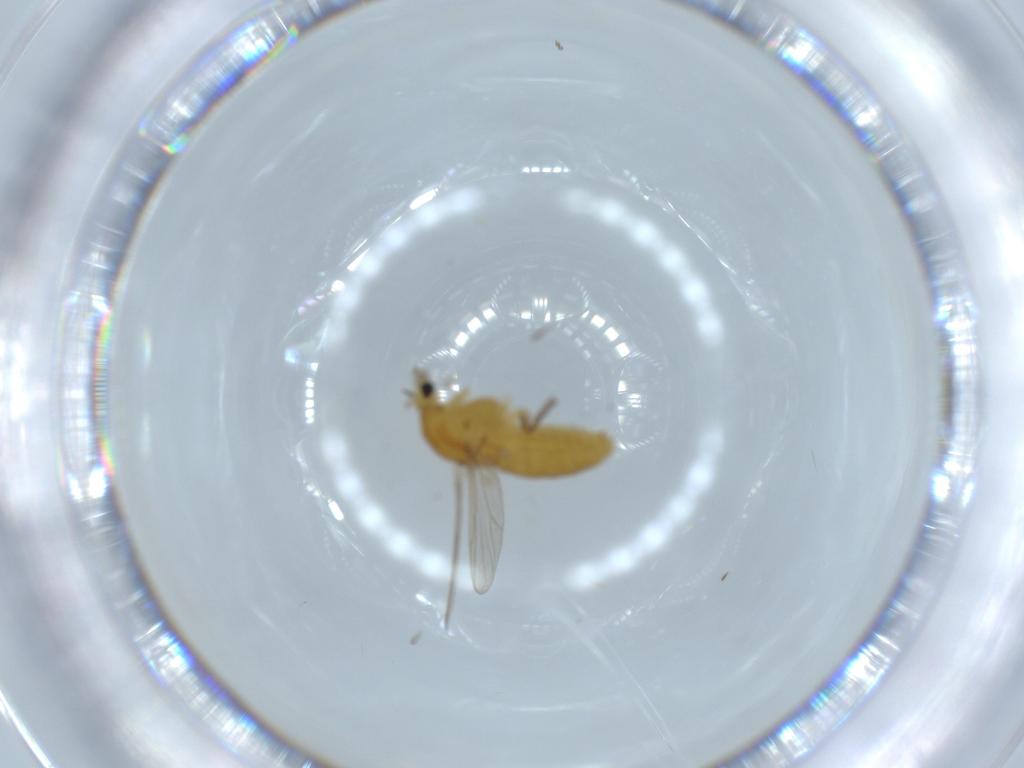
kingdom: Animalia
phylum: Arthropoda
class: Insecta
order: Diptera
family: Chironomidae
